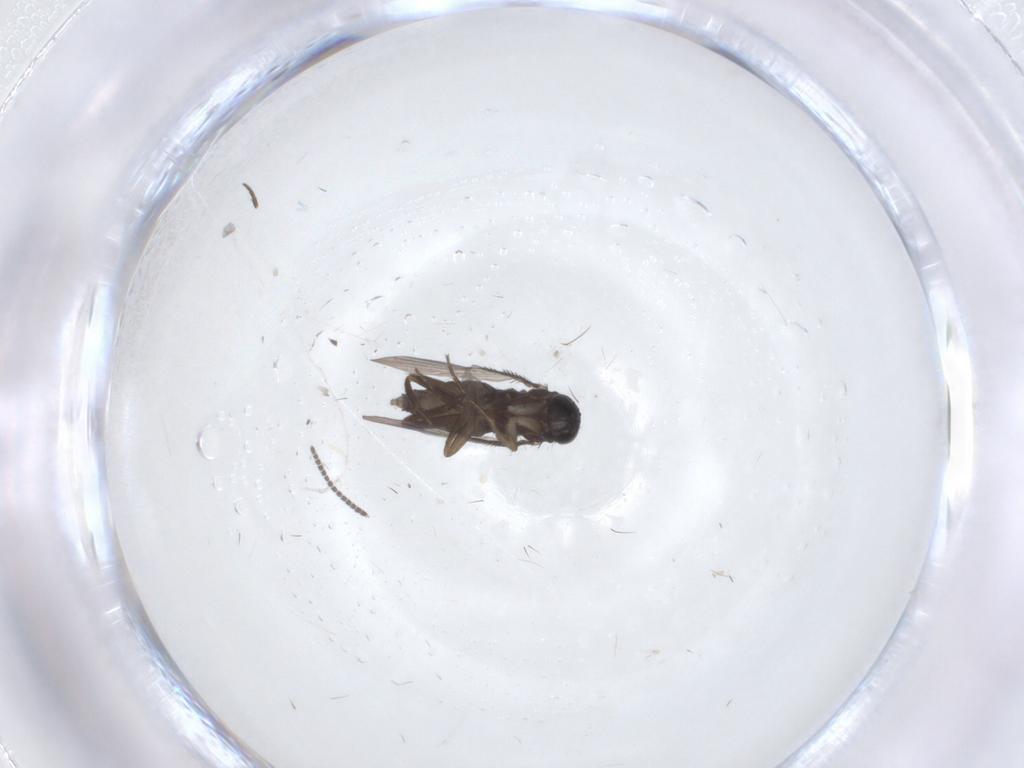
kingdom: Animalia
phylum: Arthropoda
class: Insecta
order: Diptera
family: Phoridae
